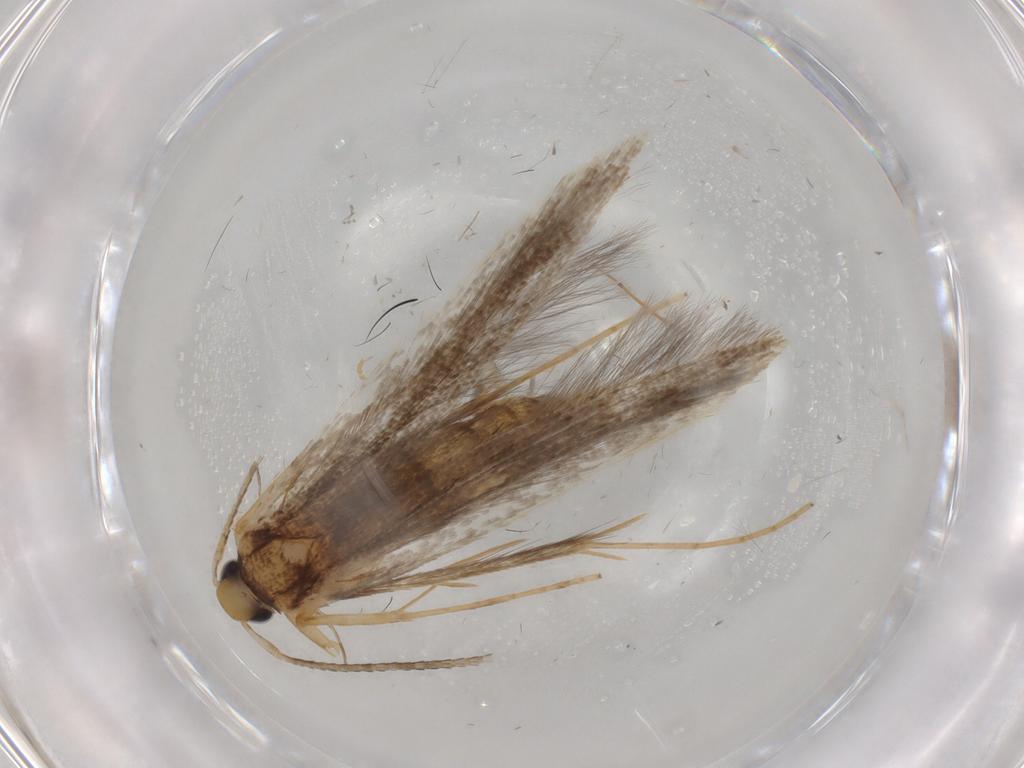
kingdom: Animalia
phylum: Arthropoda
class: Insecta
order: Lepidoptera
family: Pterolonchidae
